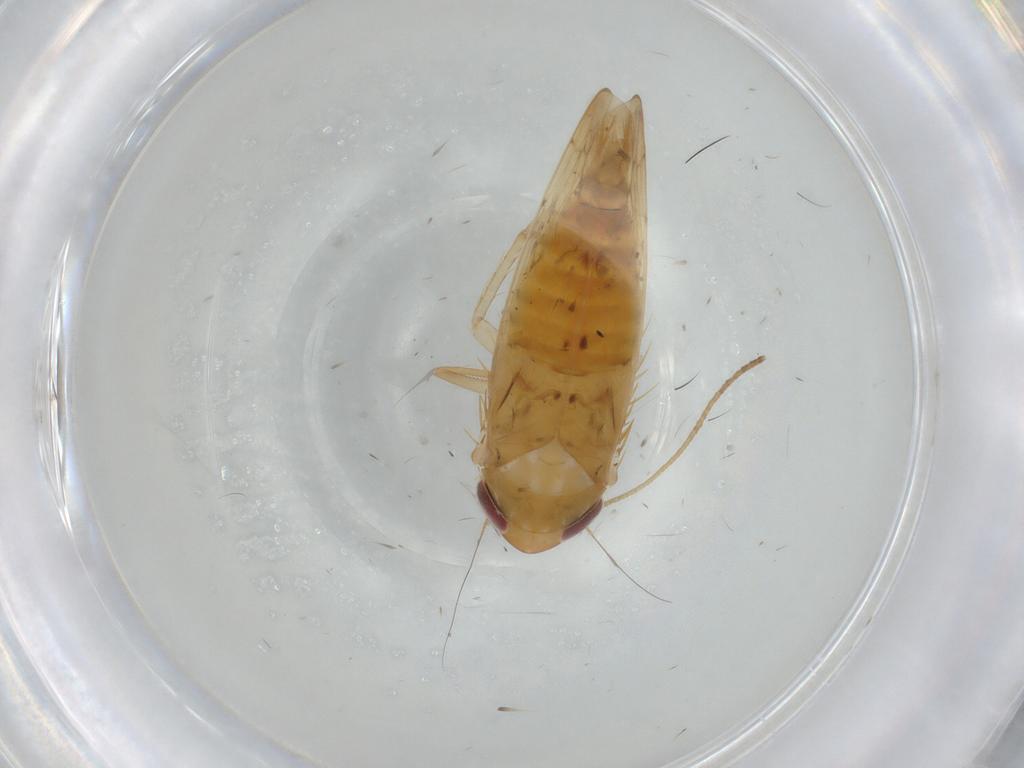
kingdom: Animalia
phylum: Arthropoda
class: Insecta
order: Hemiptera
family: Cicadellidae
